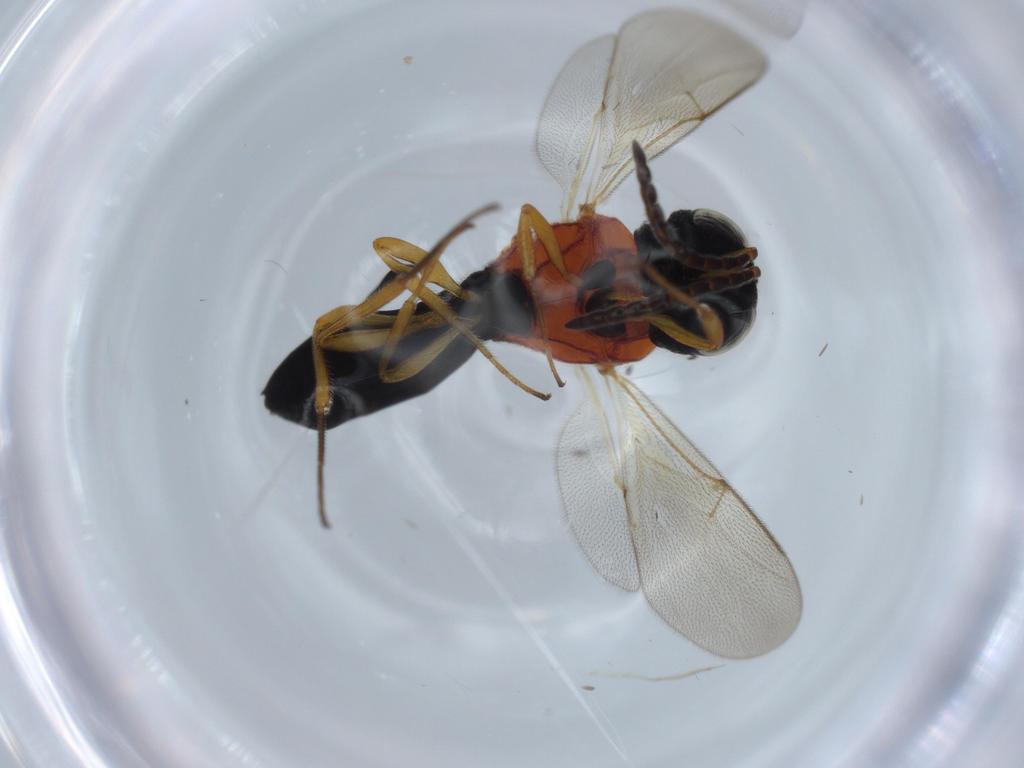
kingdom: Animalia
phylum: Arthropoda
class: Insecta
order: Hymenoptera
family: Scelionidae
